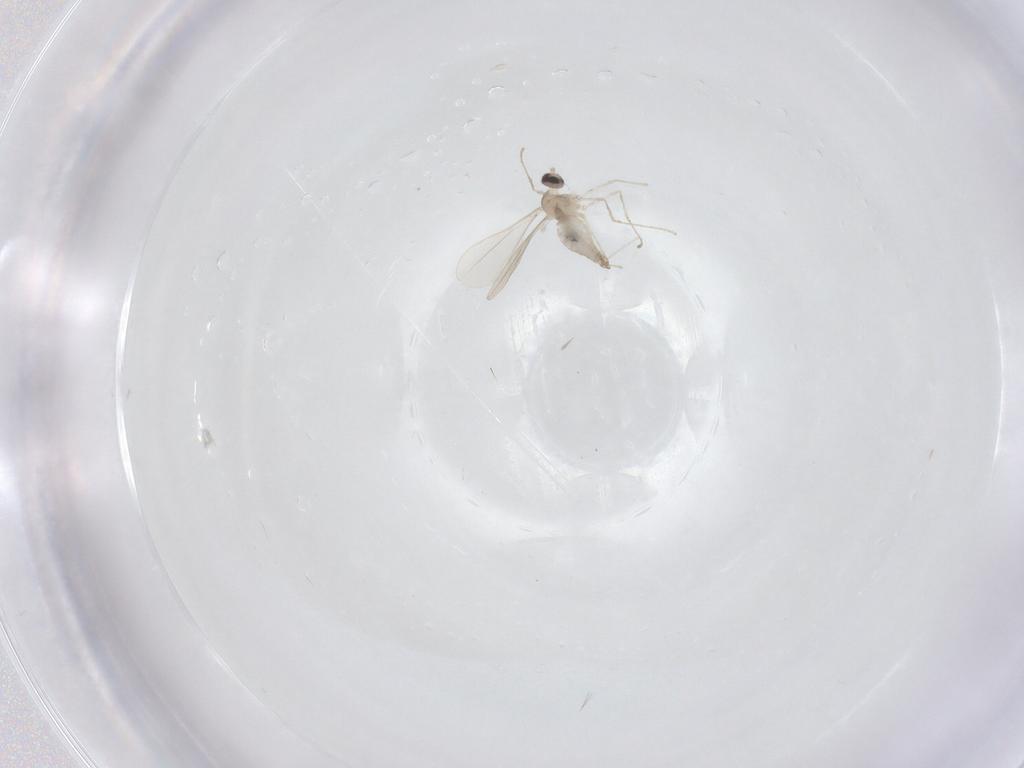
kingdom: Animalia
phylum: Arthropoda
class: Insecta
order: Diptera
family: Cecidomyiidae
